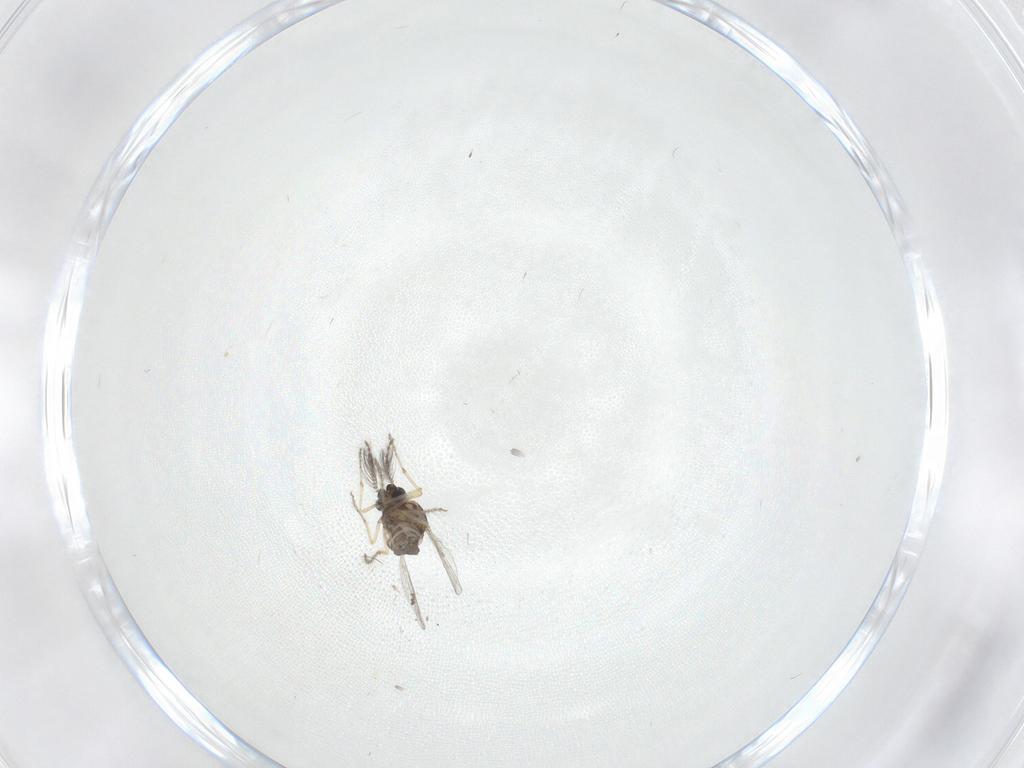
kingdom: Animalia
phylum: Arthropoda
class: Insecta
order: Diptera
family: Ceratopogonidae
